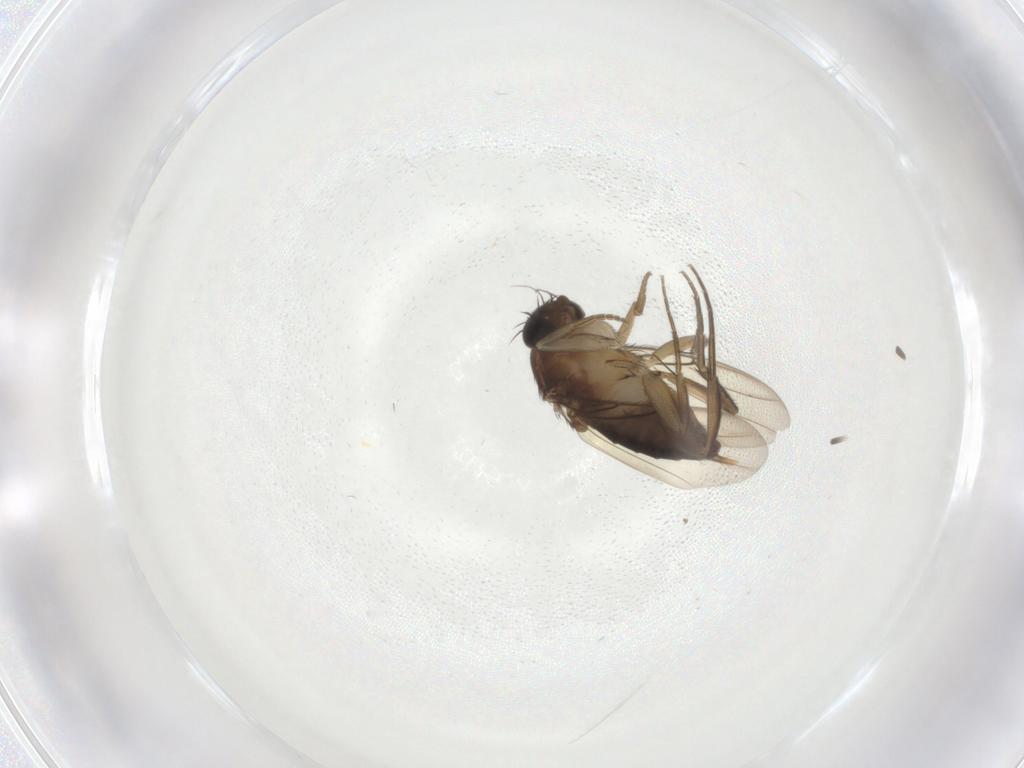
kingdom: Animalia
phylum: Arthropoda
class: Insecta
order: Diptera
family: Phoridae
